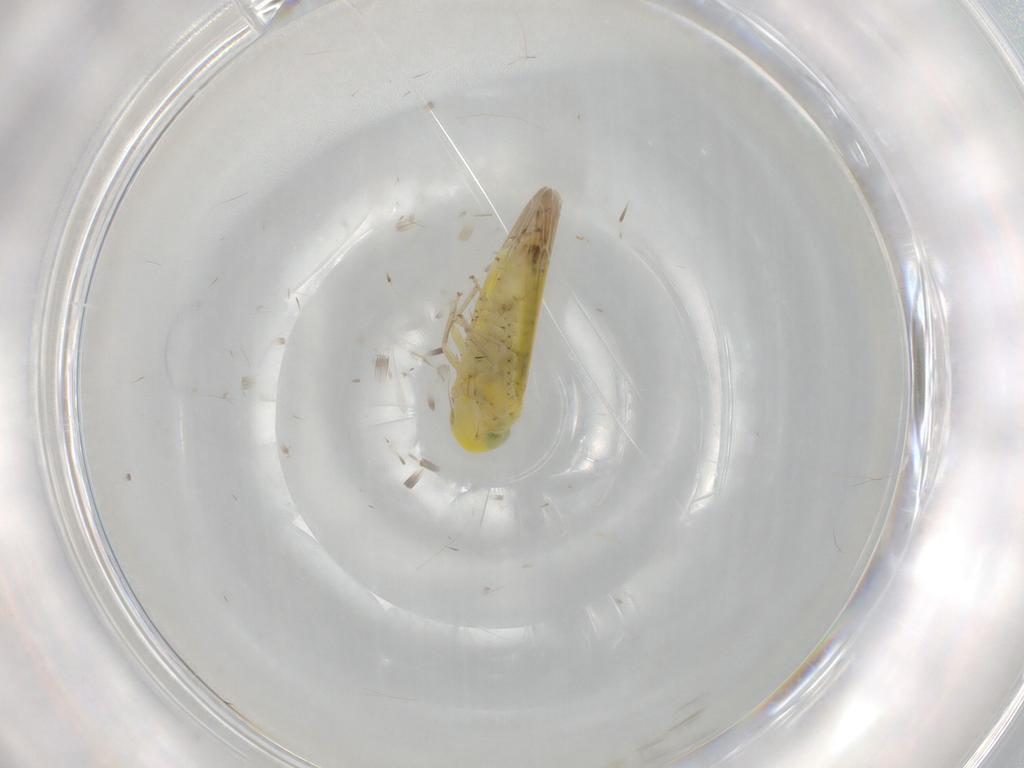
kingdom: Animalia
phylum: Arthropoda
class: Insecta
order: Hemiptera
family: Cicadellidae
